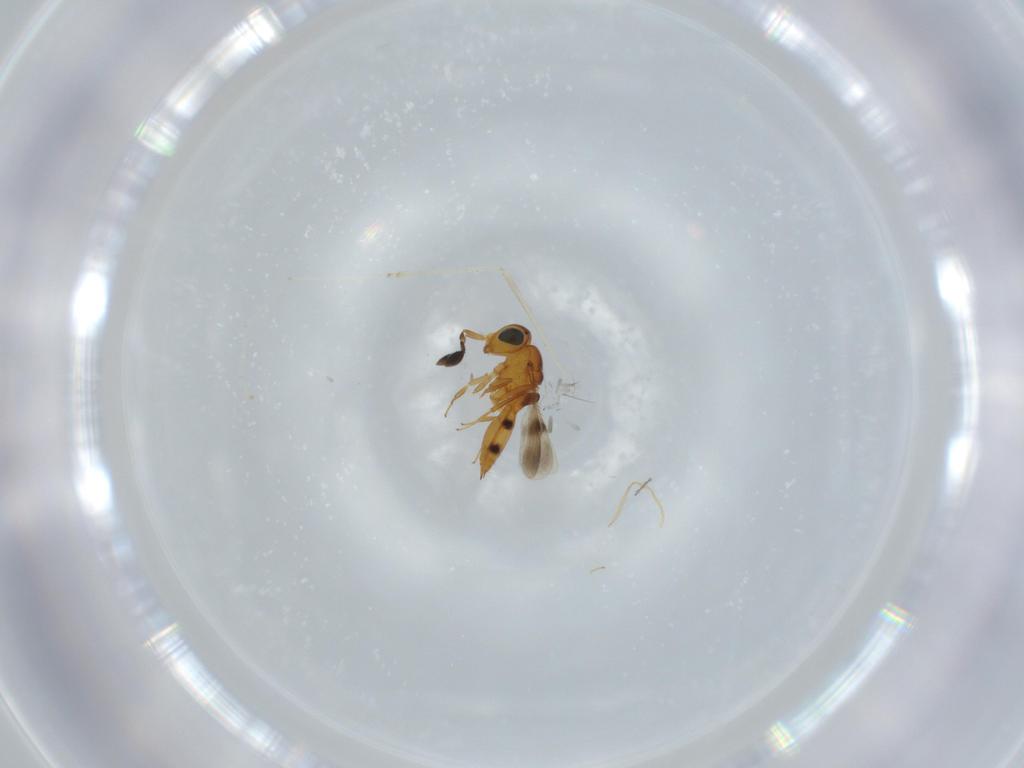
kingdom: Animalia
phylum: Arthropoda
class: Insecta
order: Hymenoptera
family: Scelionidae
